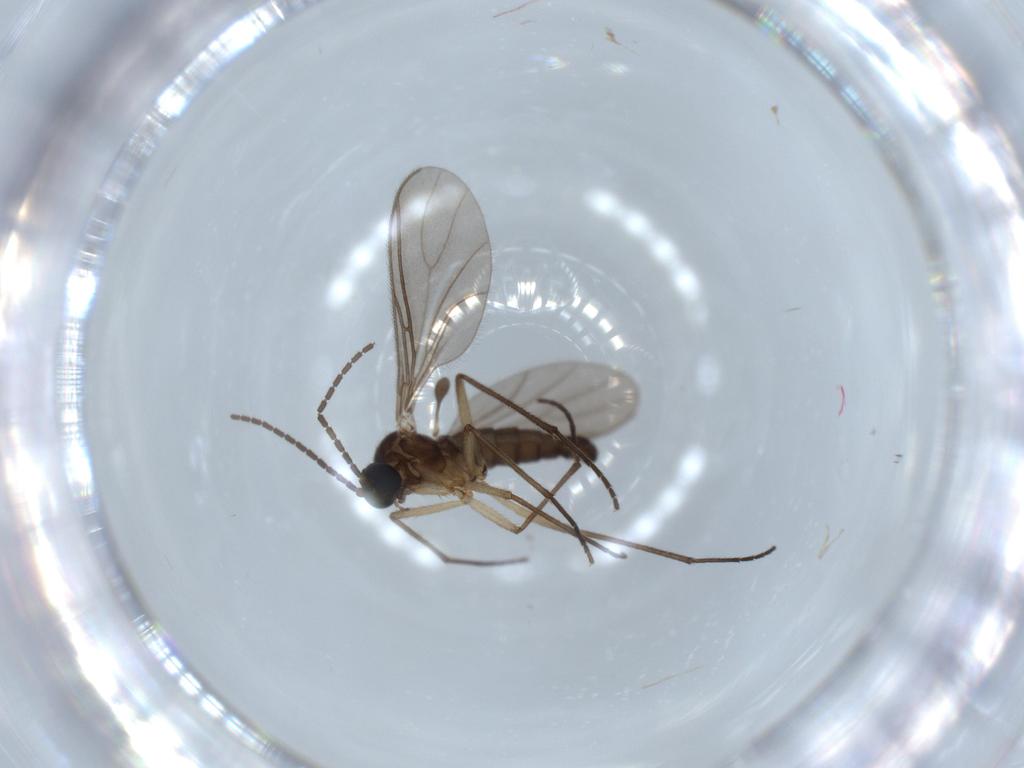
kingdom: Animalia
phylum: Arthropoda
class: Insecta
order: Diptera
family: Sciaridae
